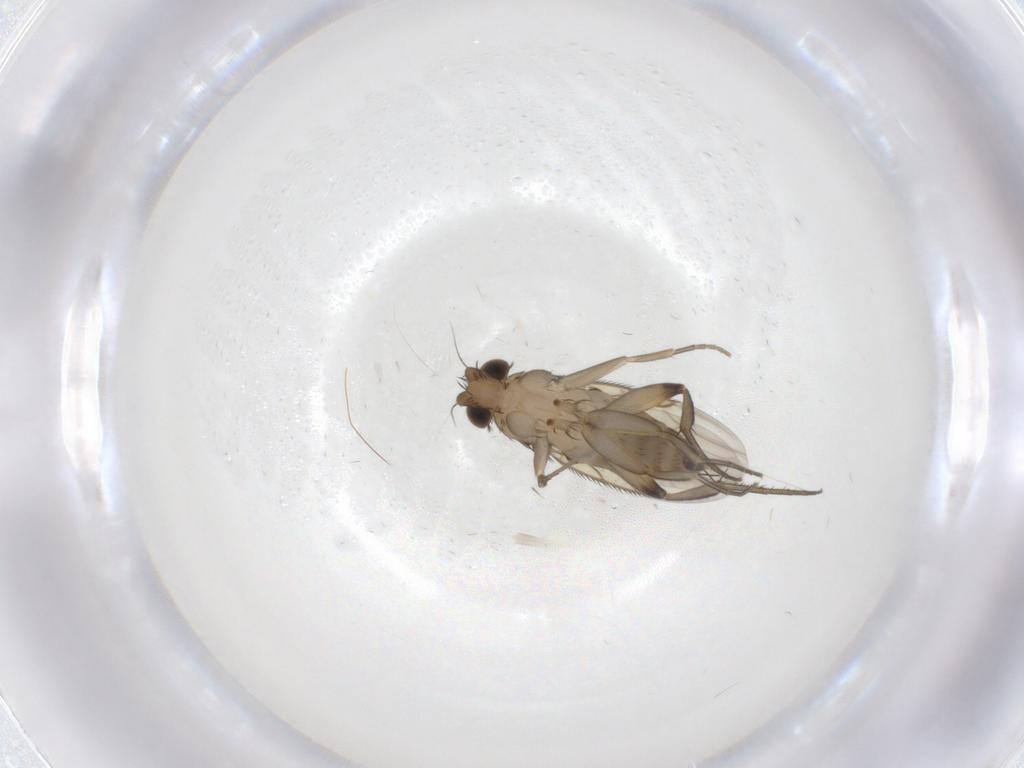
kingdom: Animalia
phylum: Arthropoda
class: Insecta
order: Diptera
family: Phoridae
